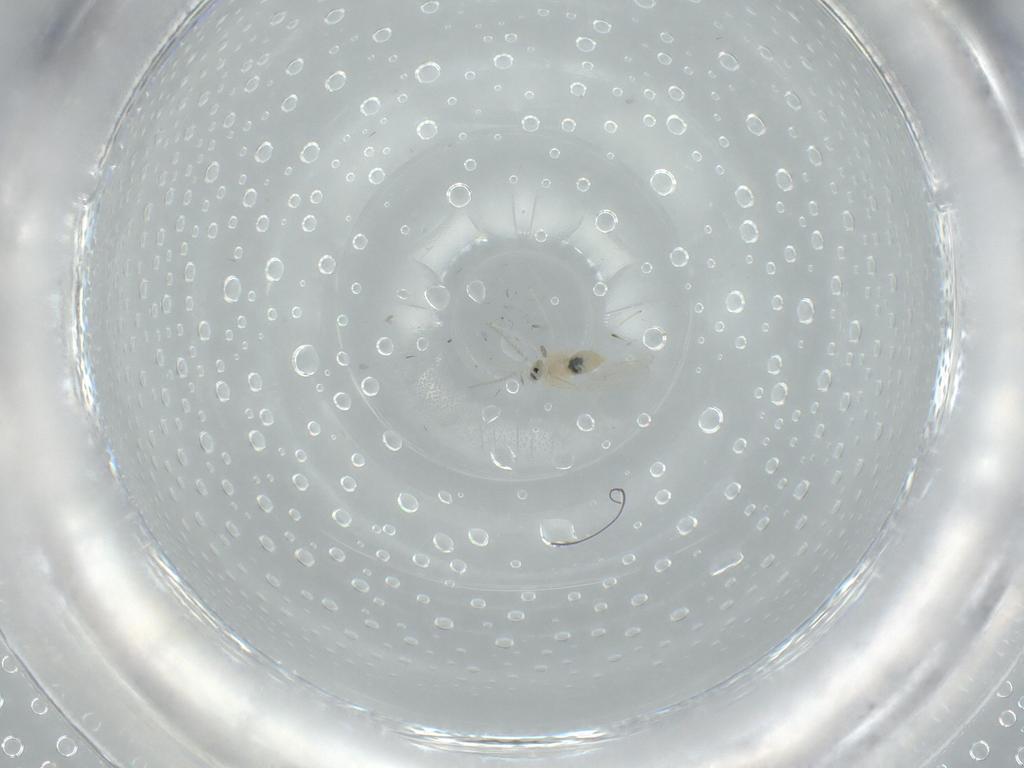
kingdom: Animalia
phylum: Arthropoda
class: Insecta
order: Diptera
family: Cecidomyiidae
